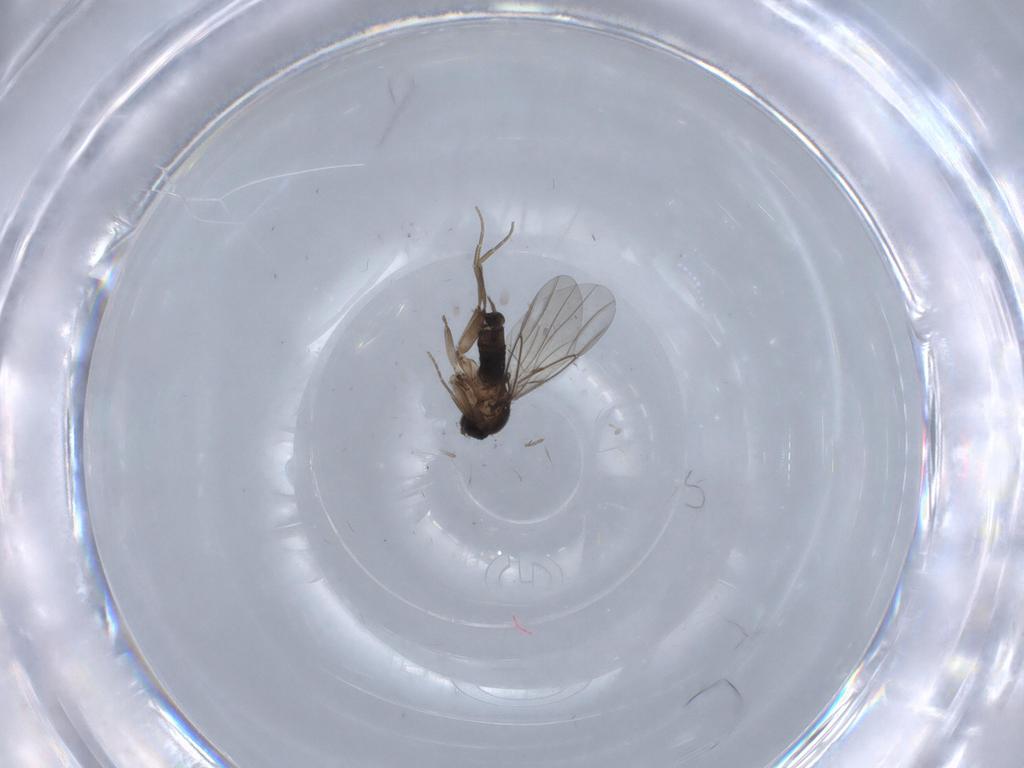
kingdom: Animalia
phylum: Arthropoda
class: Insecta
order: Diptera
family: Phoridae
